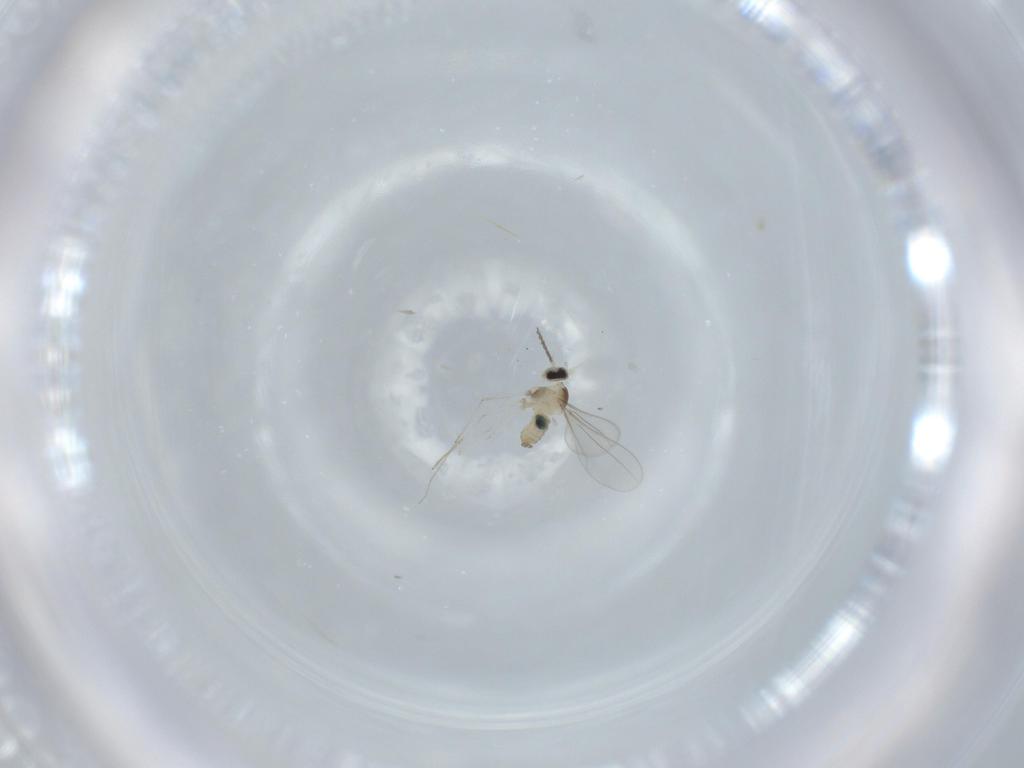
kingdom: Animalia
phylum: Arthropoda
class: Insecta
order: Diptera
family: Cecidomyiidae
